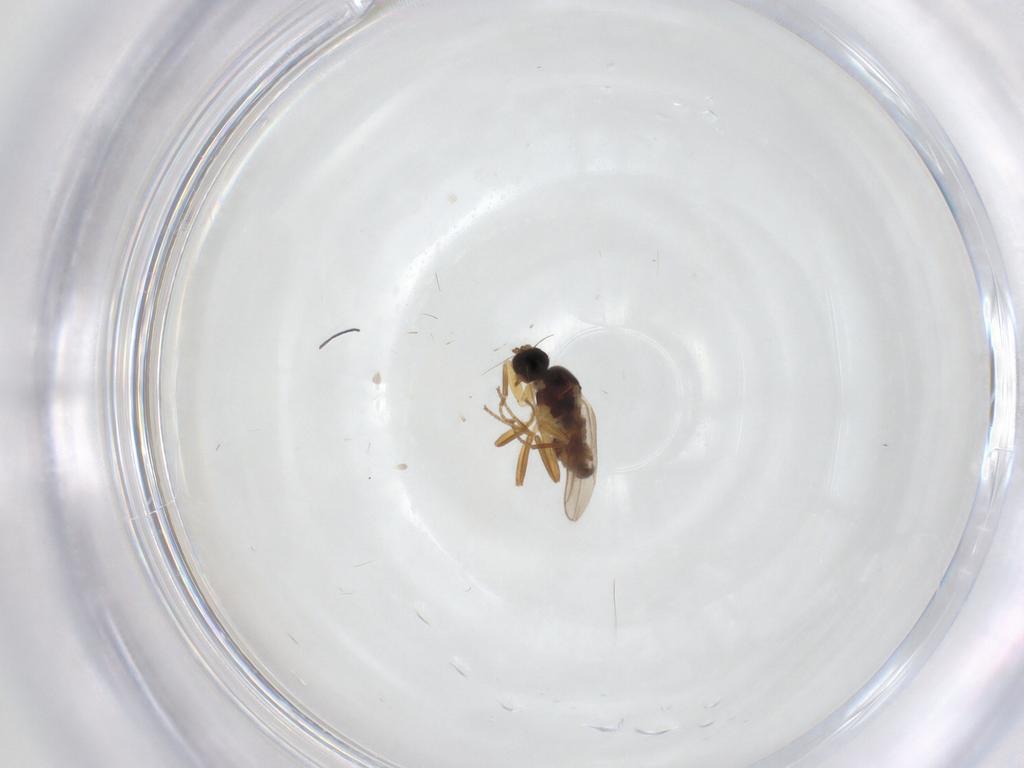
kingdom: Animalia
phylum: Arthropoda
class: Insecta
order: Diptera
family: Hybotidae
